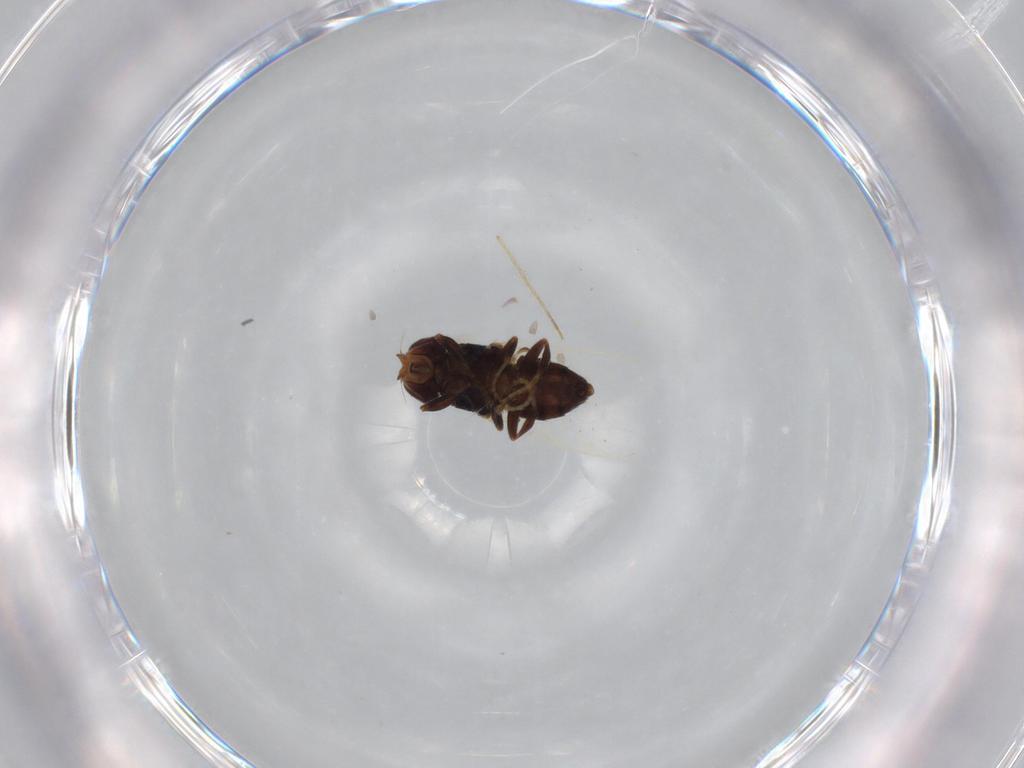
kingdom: Animalia
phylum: Arthropoda
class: Insecta
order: Diptera
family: Chloropidae
